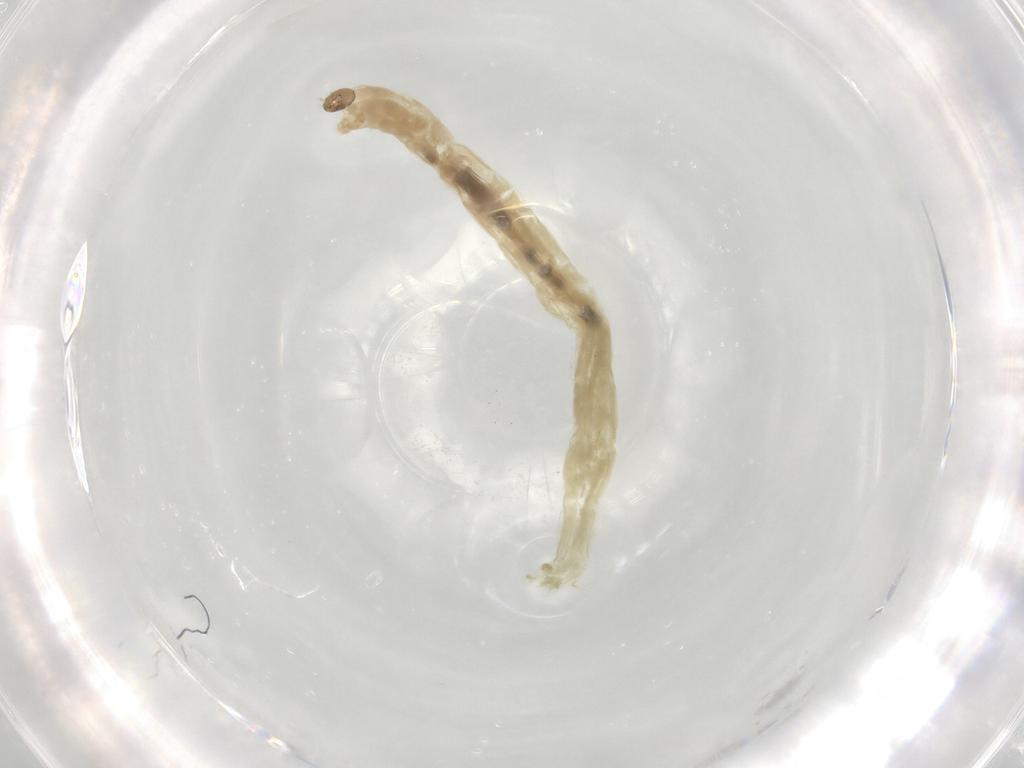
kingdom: Animalia
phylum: Arthropoda
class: Insecta
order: Diptera
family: Chironomidae
